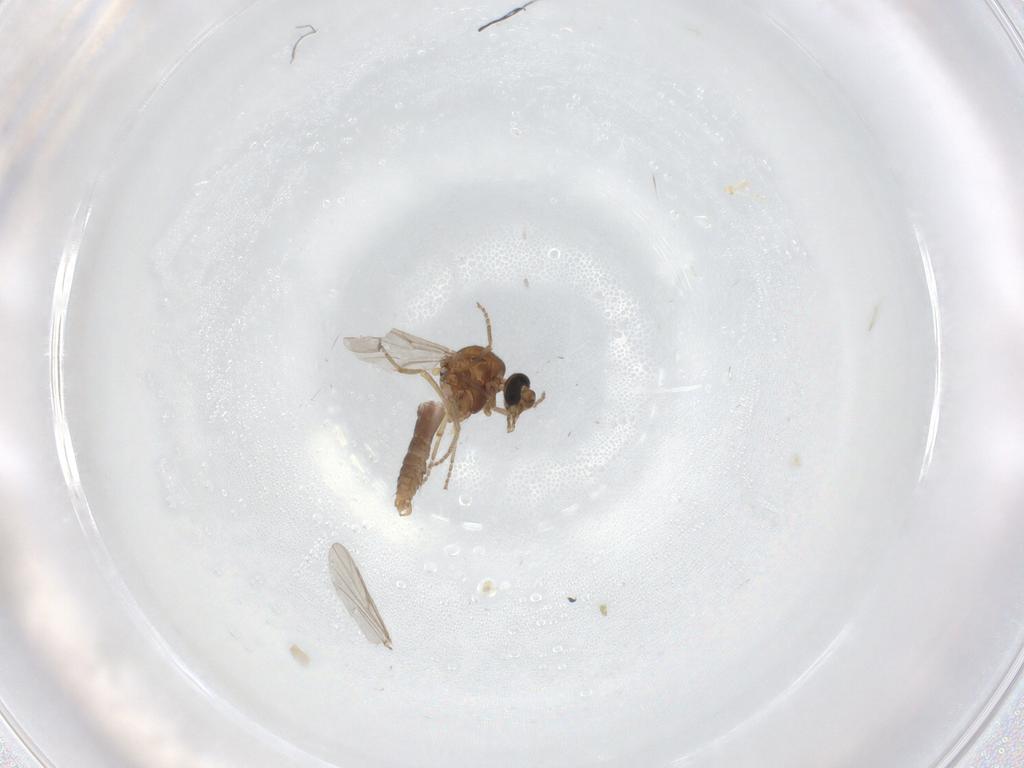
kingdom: Animalia
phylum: Arthropoda
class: Insecta
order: Diptera
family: Ceratopogonidae
